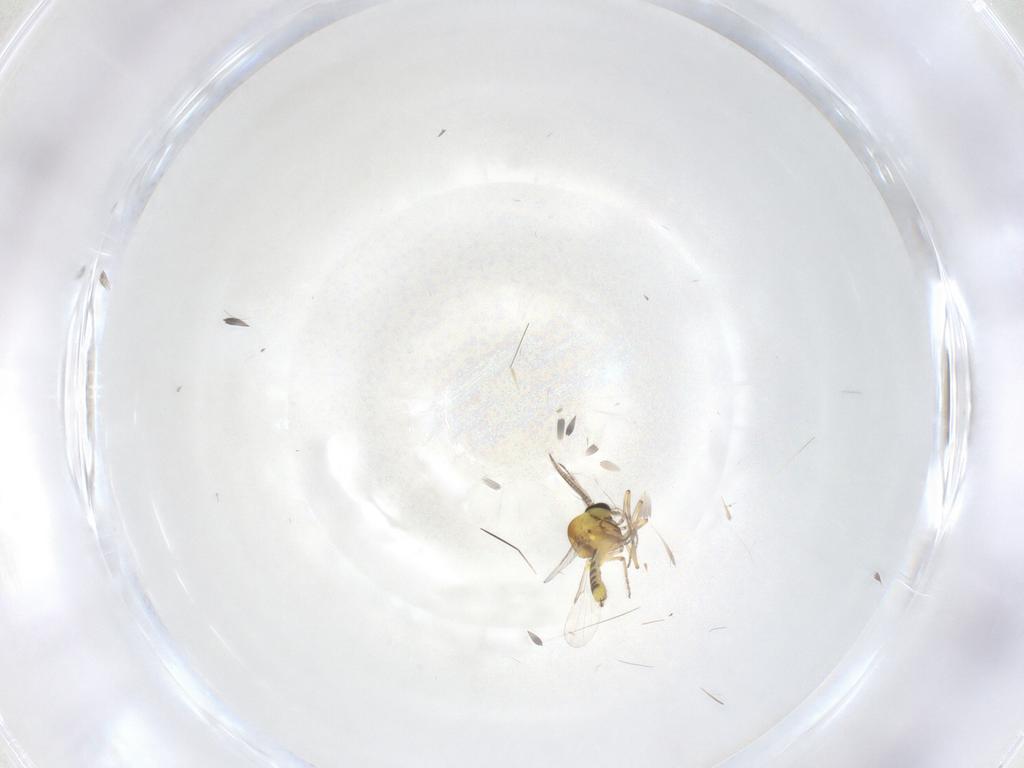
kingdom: Animalia
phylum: Arthropoda
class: Insecta
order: Diptera
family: Ceratopogonidae
